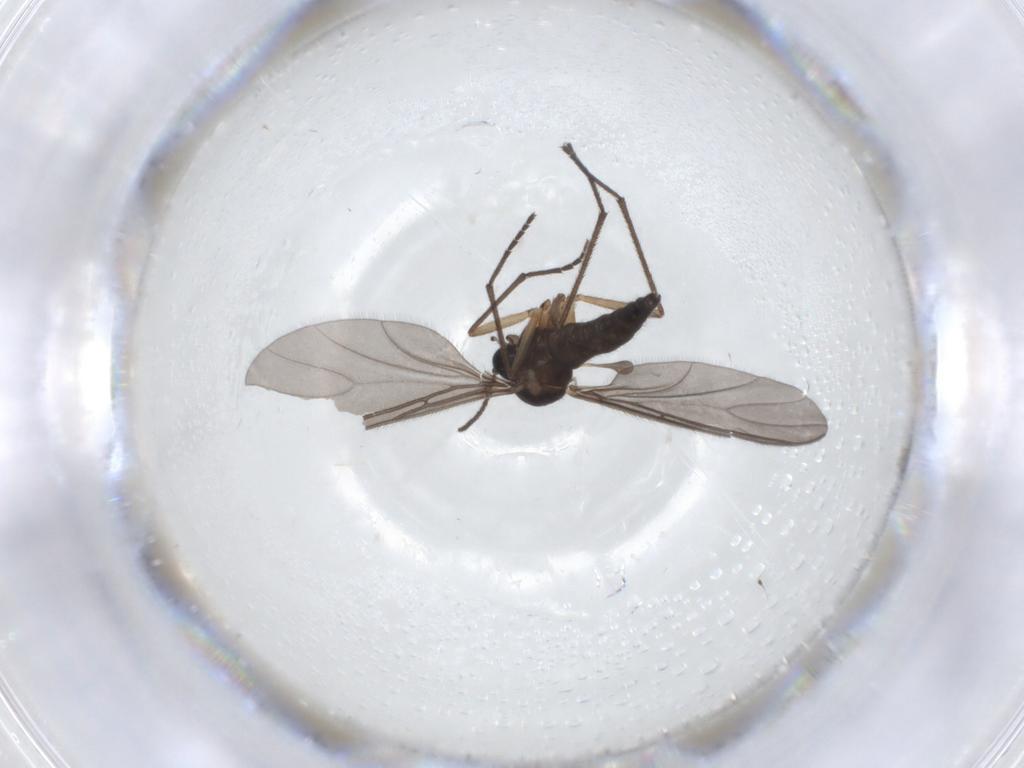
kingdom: Animalia
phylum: Arthropoda
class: Insecta
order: Diptera
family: Sciaridae
